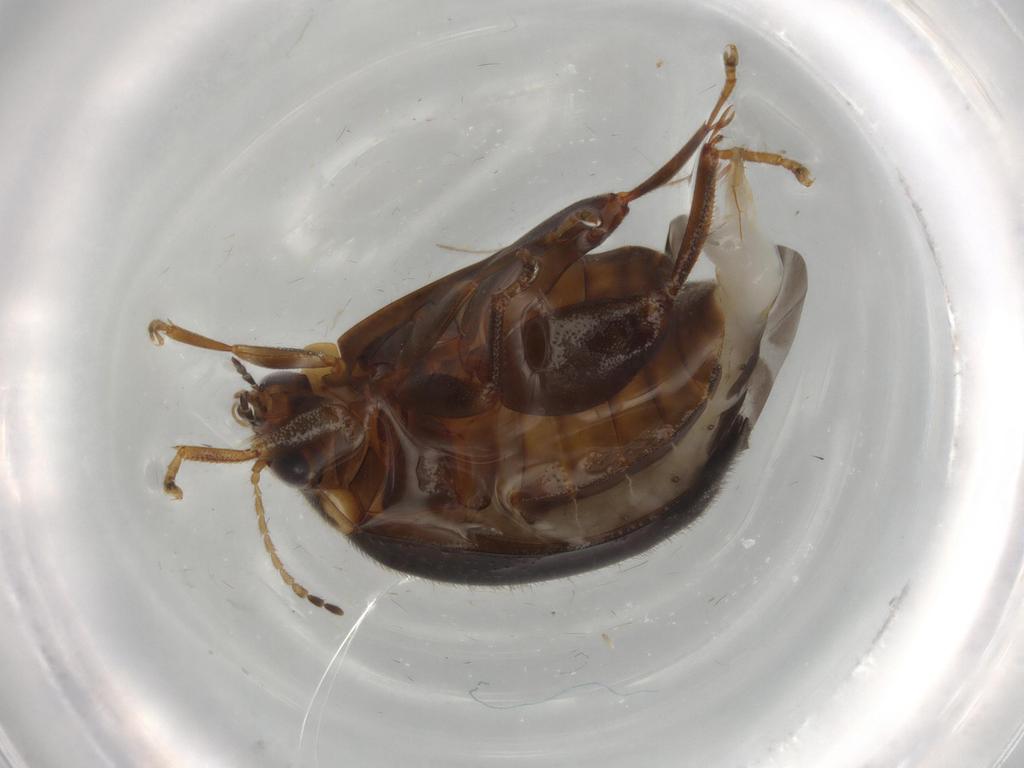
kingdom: Animalia
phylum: Arthropoda
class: Insecta
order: Coleoptera
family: Scirtidae
